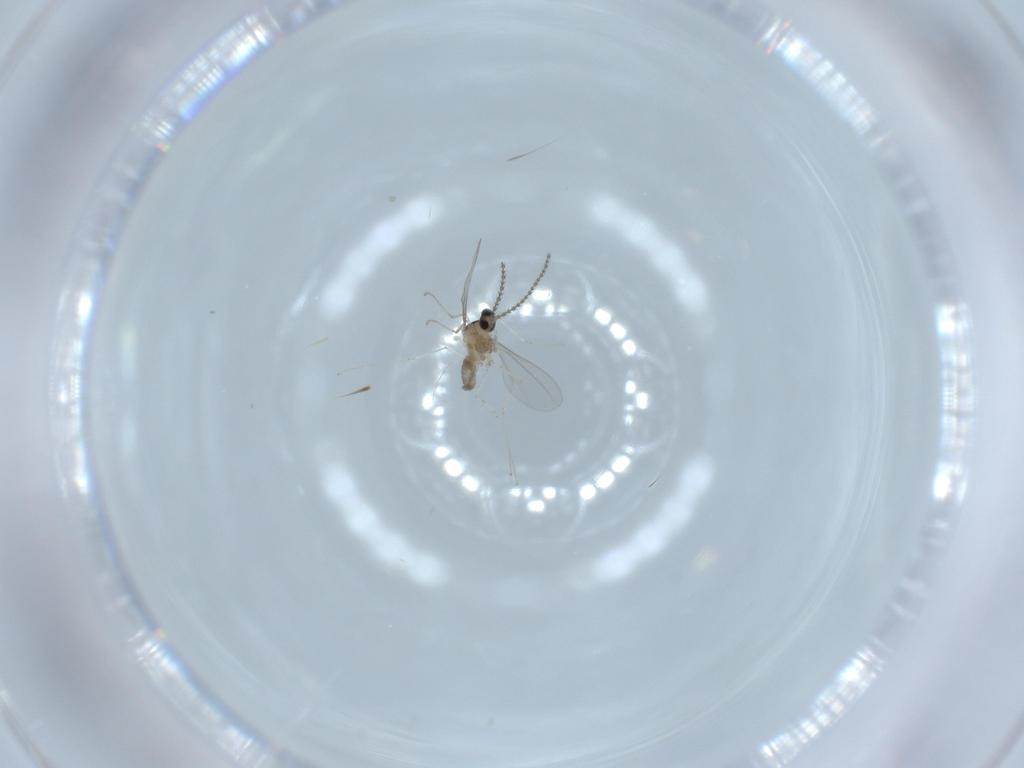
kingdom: Animalia
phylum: Arthropoda
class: Insecta
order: Diptera
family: Cecidomyiidae
